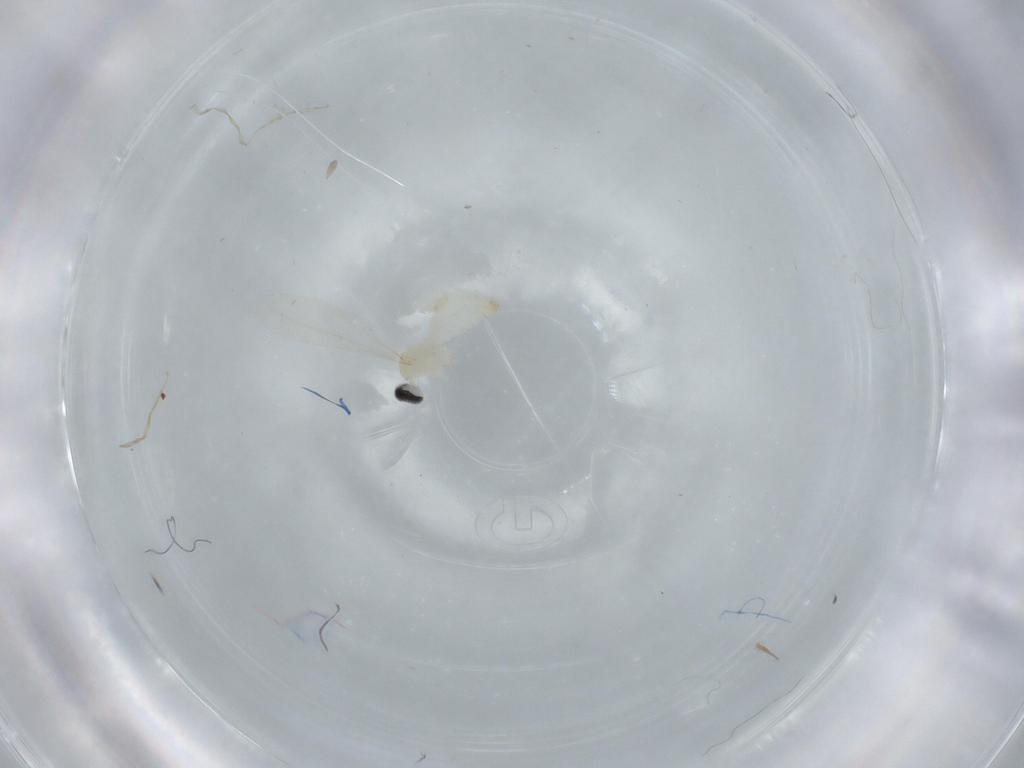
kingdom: Animalia
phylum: Arthropoda
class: Insecta
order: Diptera
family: Cecidomyiidae
